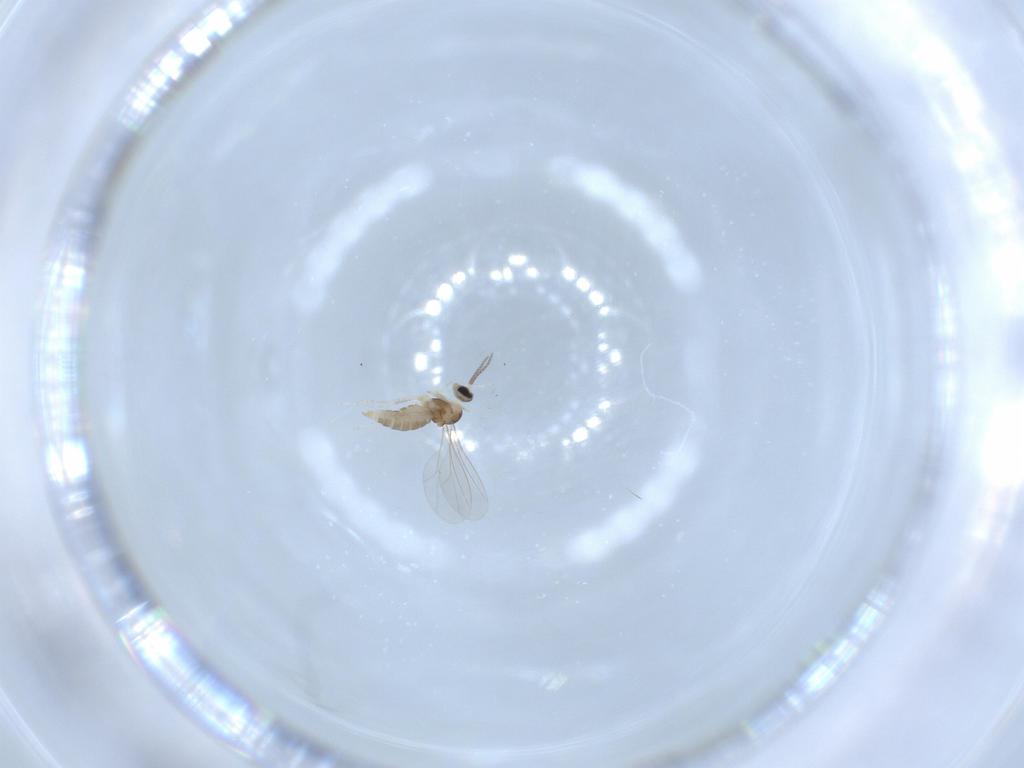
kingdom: Animalia
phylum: Arthropoda
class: Insecta
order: Diptera
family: Cecidomyiidae
